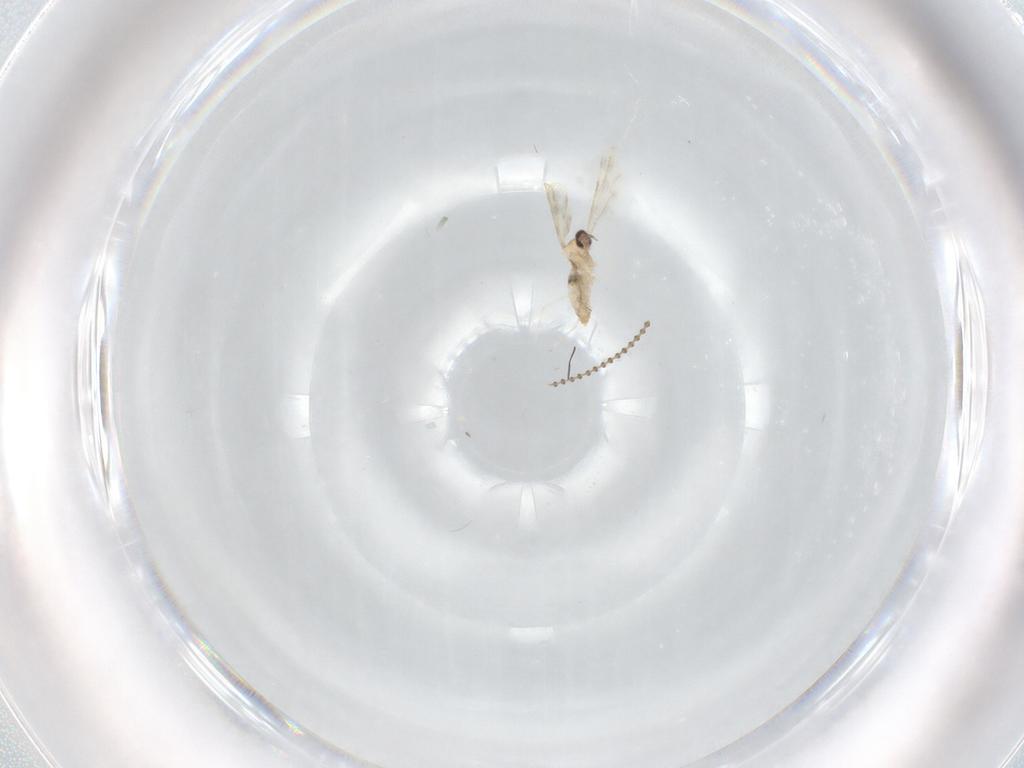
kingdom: Animalia
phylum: Arthropoda
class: Insecta
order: Diptera
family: Cecidomyiidae
